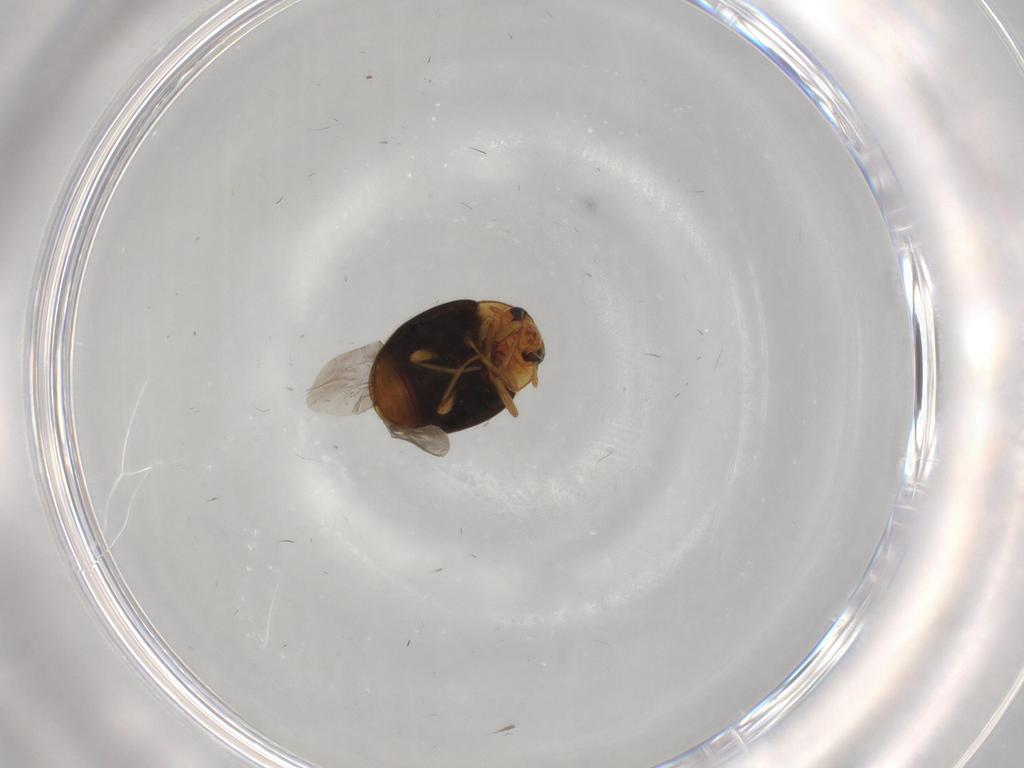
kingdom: Animalia
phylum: Arthropoda
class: Insecta
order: Coleoptera
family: Coccinellidae
